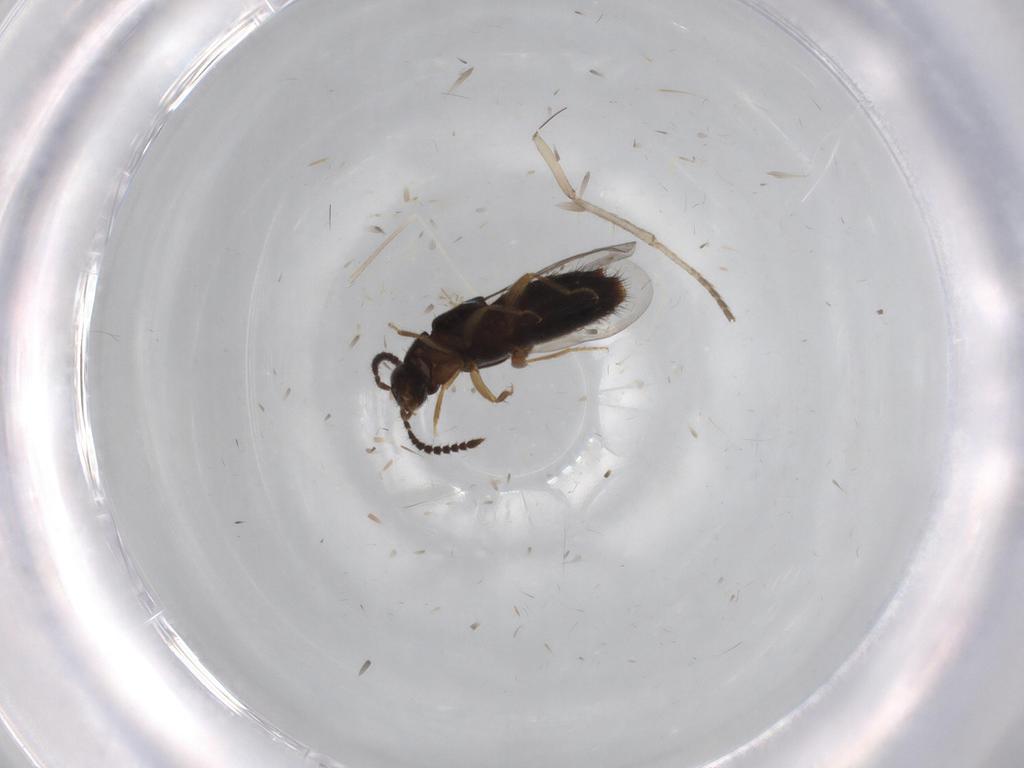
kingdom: Animalia
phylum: Arthropoda
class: Insecta
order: Coleoptera
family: Staphylinidae
